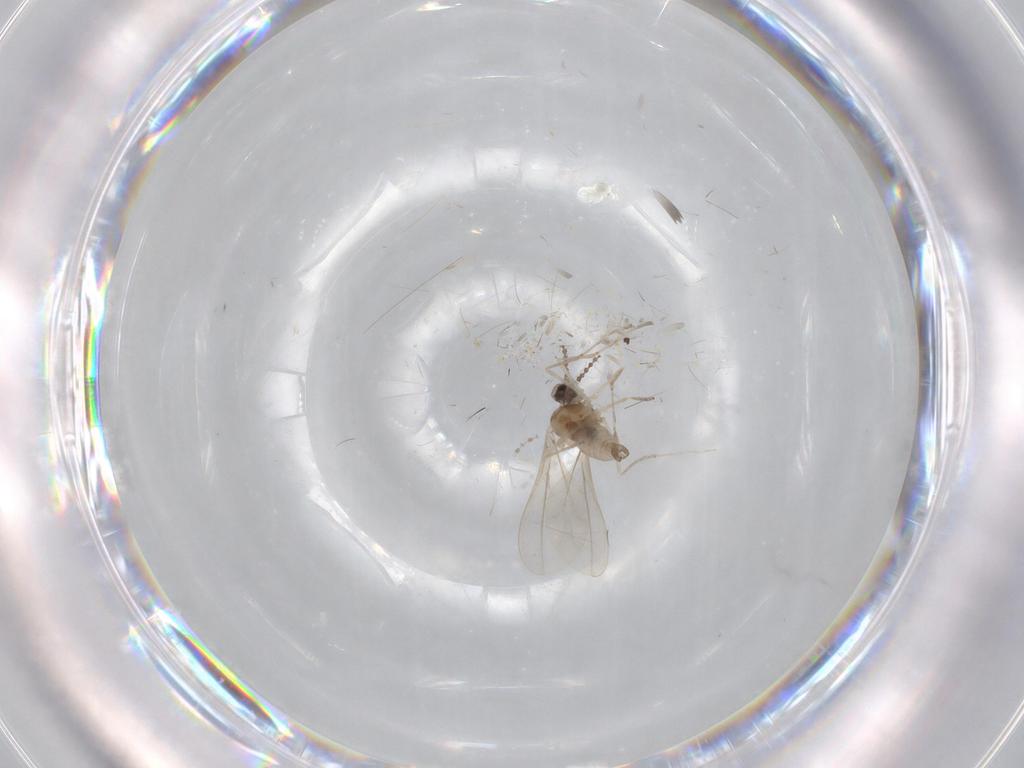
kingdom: Animalia
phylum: Arthropoda
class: Insecta
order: Diptera
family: Cecidomyiidae
